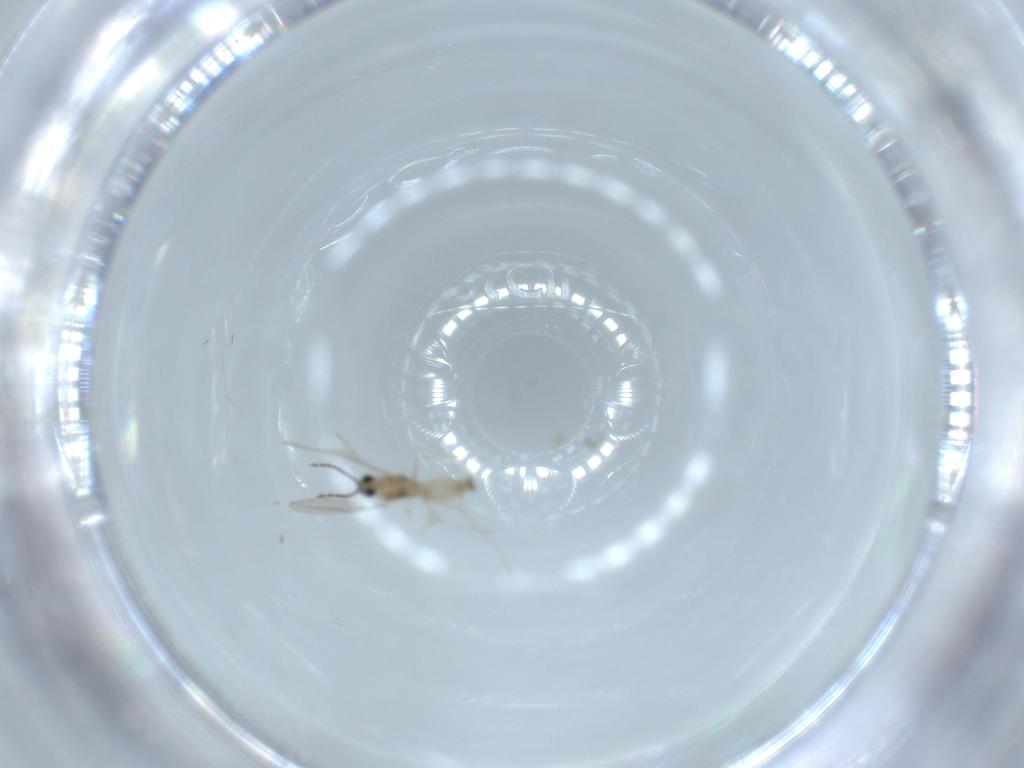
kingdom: Animalia
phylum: Arthropoda
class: Insecta
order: Diptera
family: Cecidomyiidae
